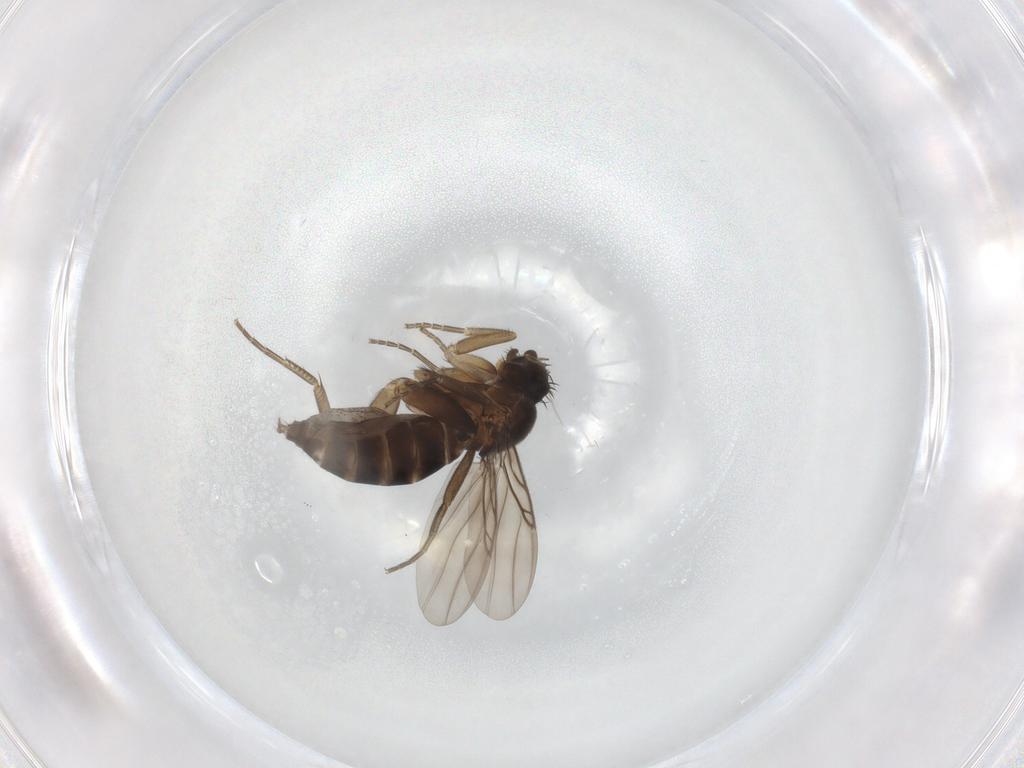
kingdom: Animalia
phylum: Arthropoda
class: Insecta
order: Diptera
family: Phoridae
